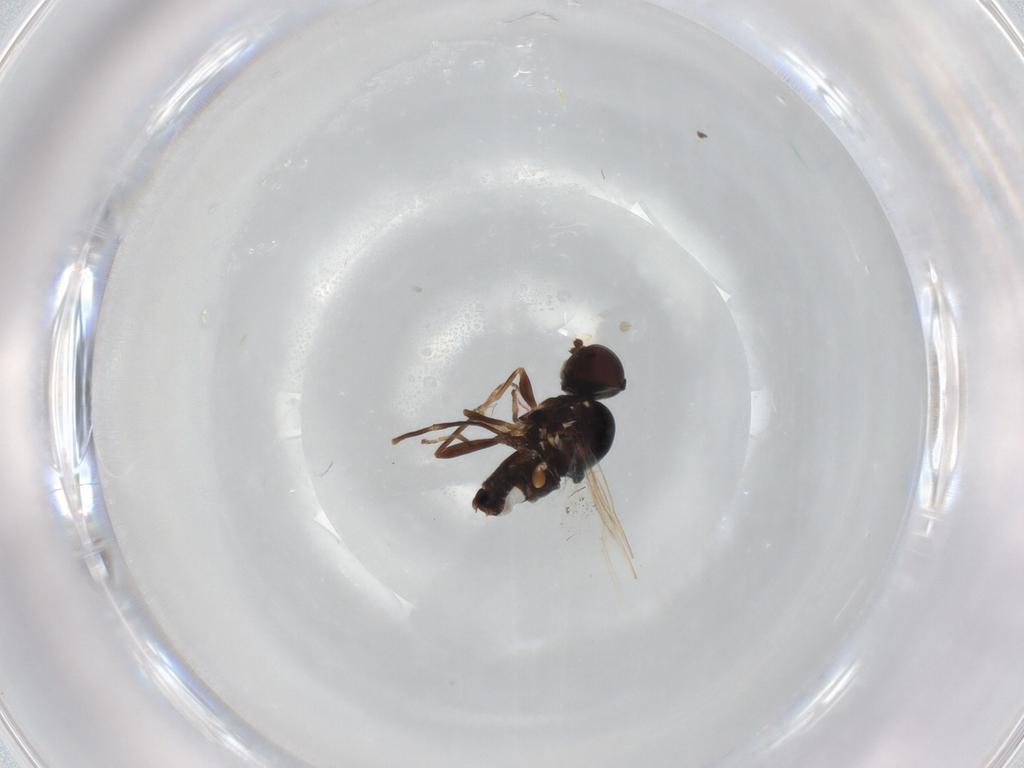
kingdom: Animalia
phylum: Arthropoda
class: Insecta
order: Diptera
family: Scenopinidae
